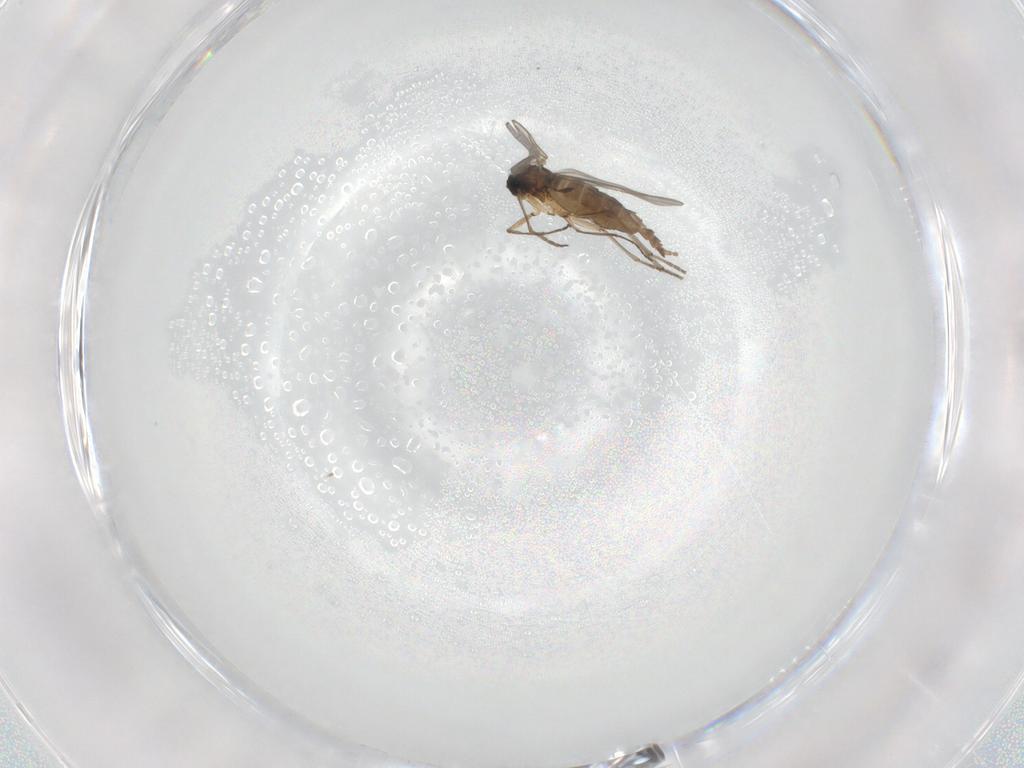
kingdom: Animalia
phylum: Arthropoda
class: Insecta
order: Diptera
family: Sciaridae
